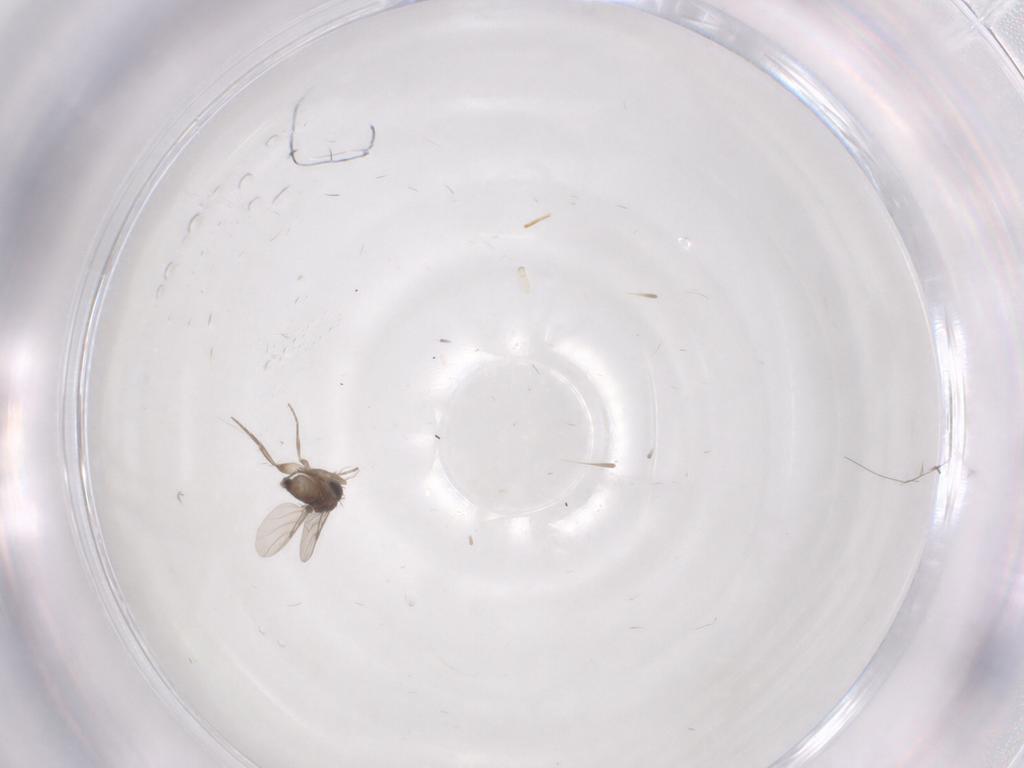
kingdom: Animalia
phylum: Arthropoda
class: Insecta
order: Diptera
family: Phoridae
